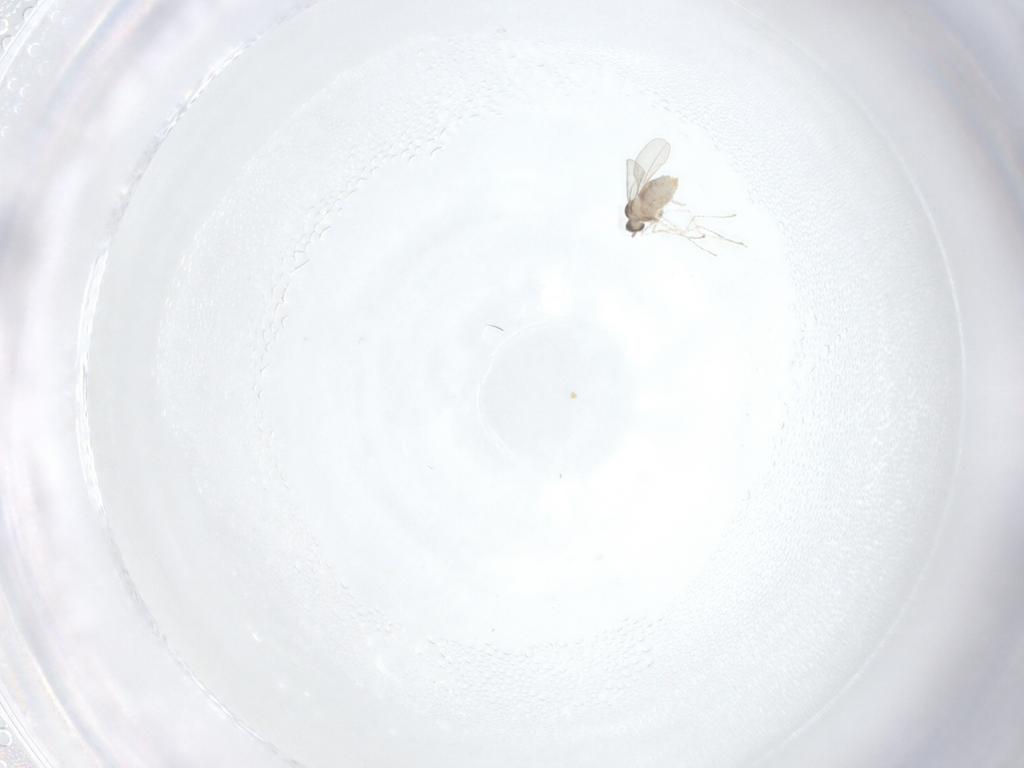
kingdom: Animalia
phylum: Arthropoda
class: Insecta
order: Diptera
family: Cecidomyiidae
